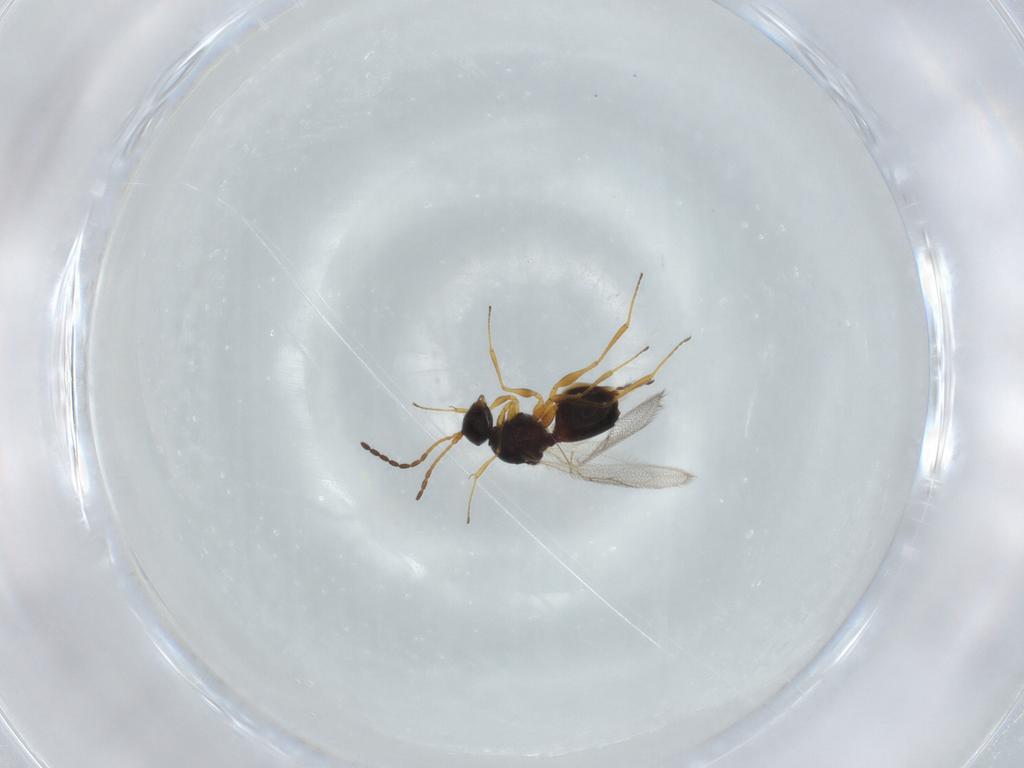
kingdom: Animalia
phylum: Arthropoda
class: Insecta
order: Hymenoptera
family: Figitidae
